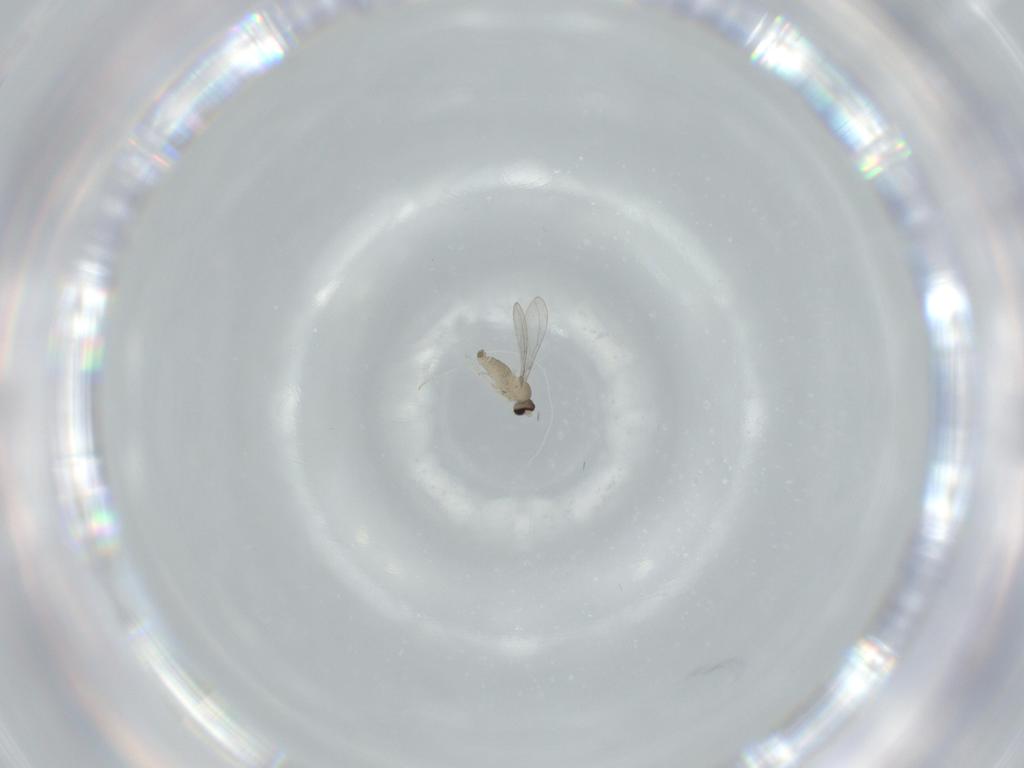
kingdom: Animalia
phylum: Arthropoda
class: Insecta
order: Diptera
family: Cecidomyiidae
